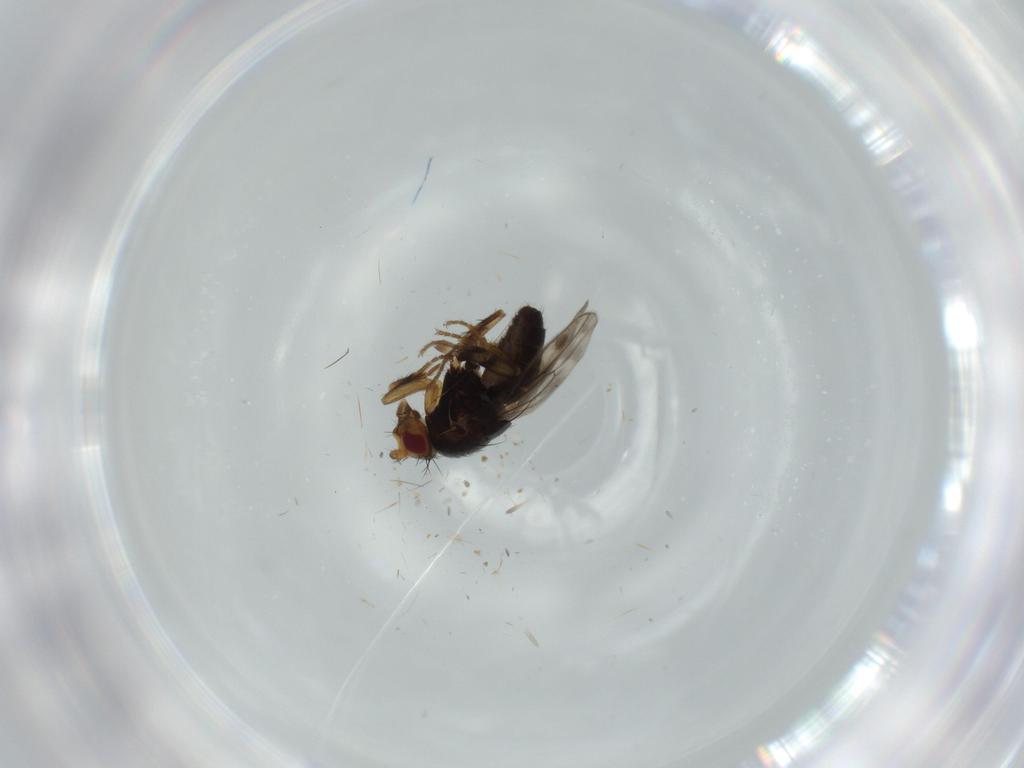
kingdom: Animalia
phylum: Arthropoda
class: Insecta
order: Diptera
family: Sphaeroceridae
